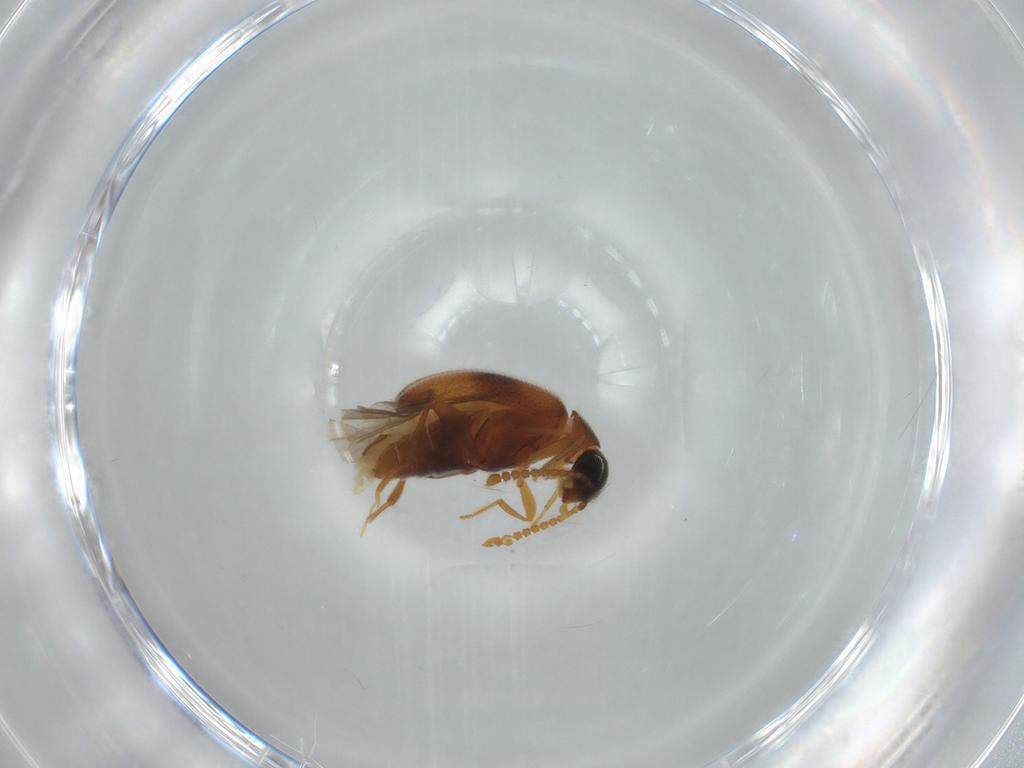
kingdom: Animalia
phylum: Arthropoda
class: Insecta
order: Coleoptera
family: Aderidae
